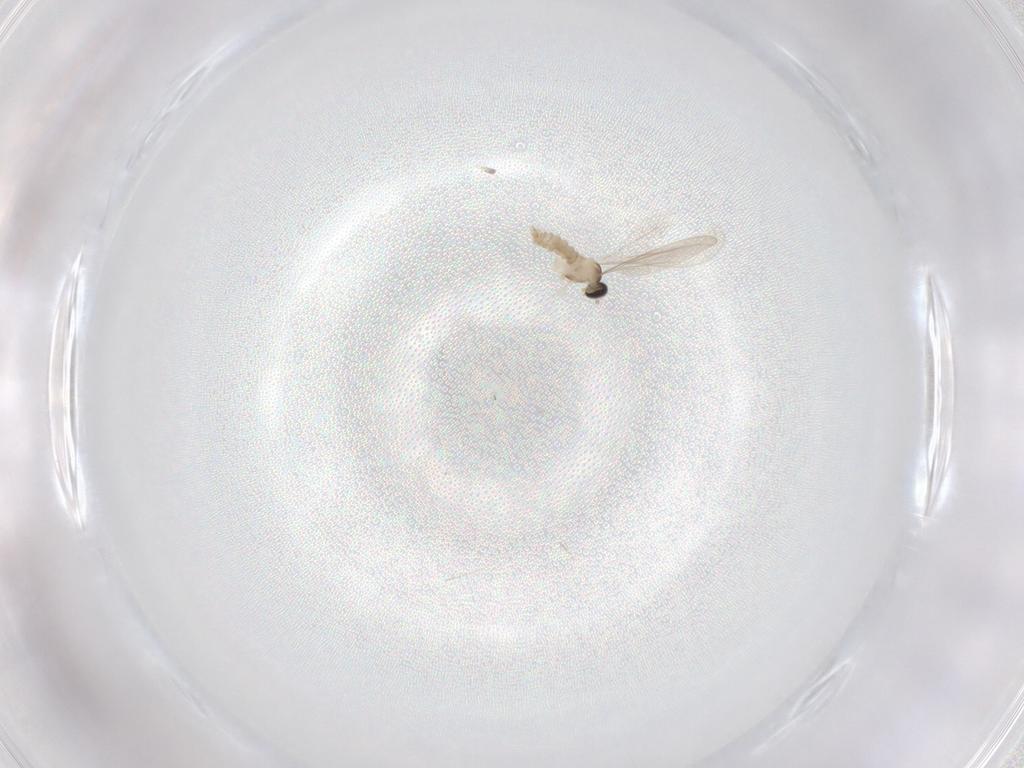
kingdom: Animalia
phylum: Arthropoda
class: Insecta
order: Diptera
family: Cecidomyiidae
